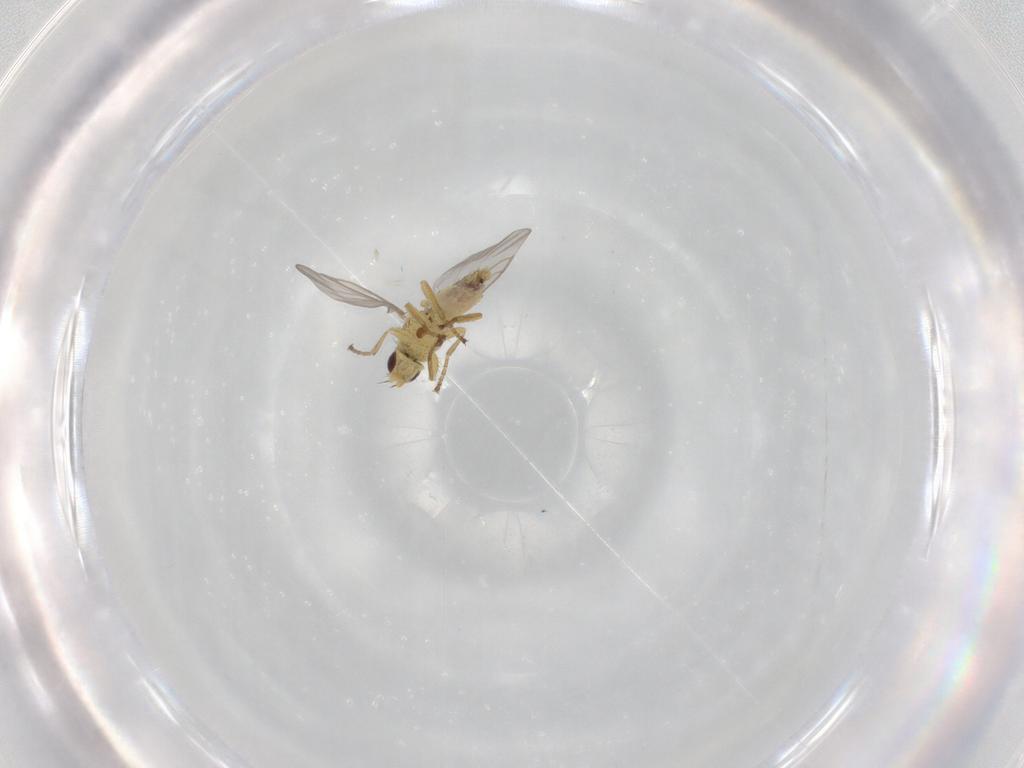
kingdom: Animalia
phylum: Arthropoda
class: Insecta
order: Diptera
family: Agromyzidae
